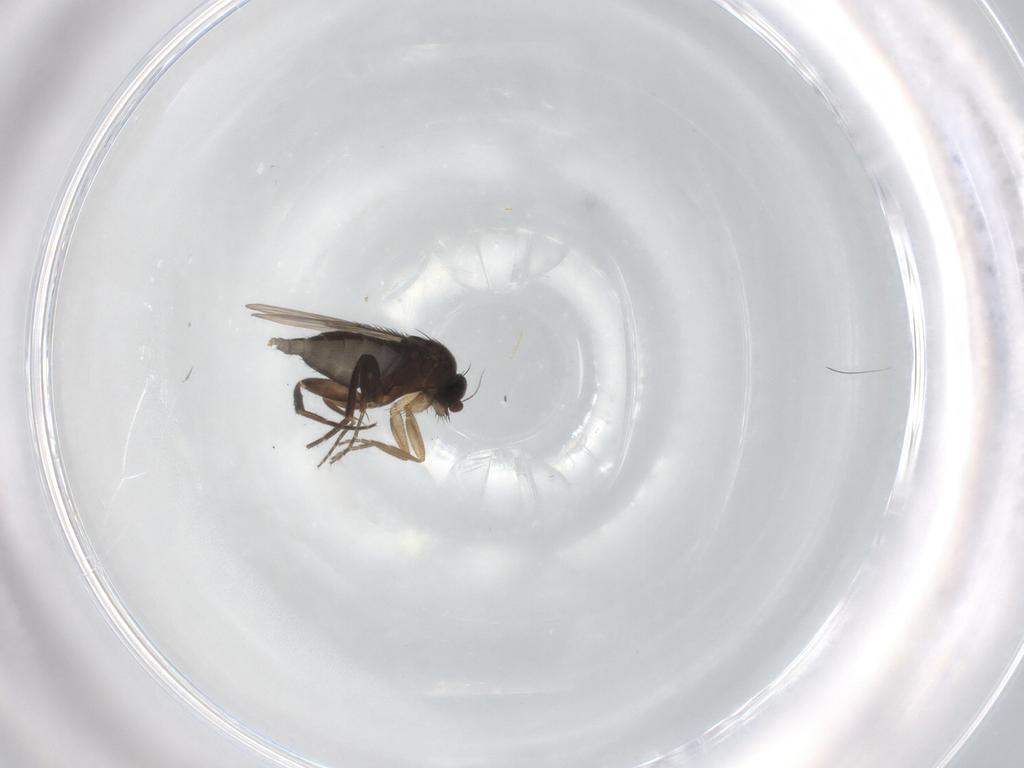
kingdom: Animalia
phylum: Arthropoda
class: Insecta
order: Diptera
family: Phoridae
